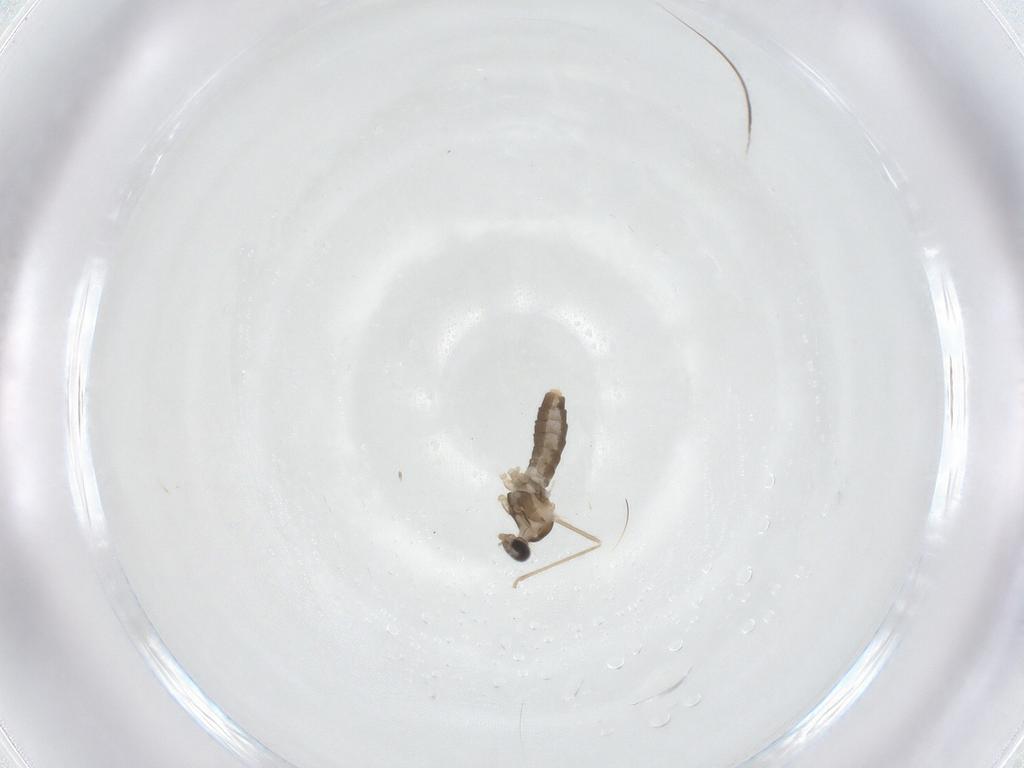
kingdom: Animalia
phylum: Arthropoda
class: Insecta
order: Diptera
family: Cecidomyiidae
